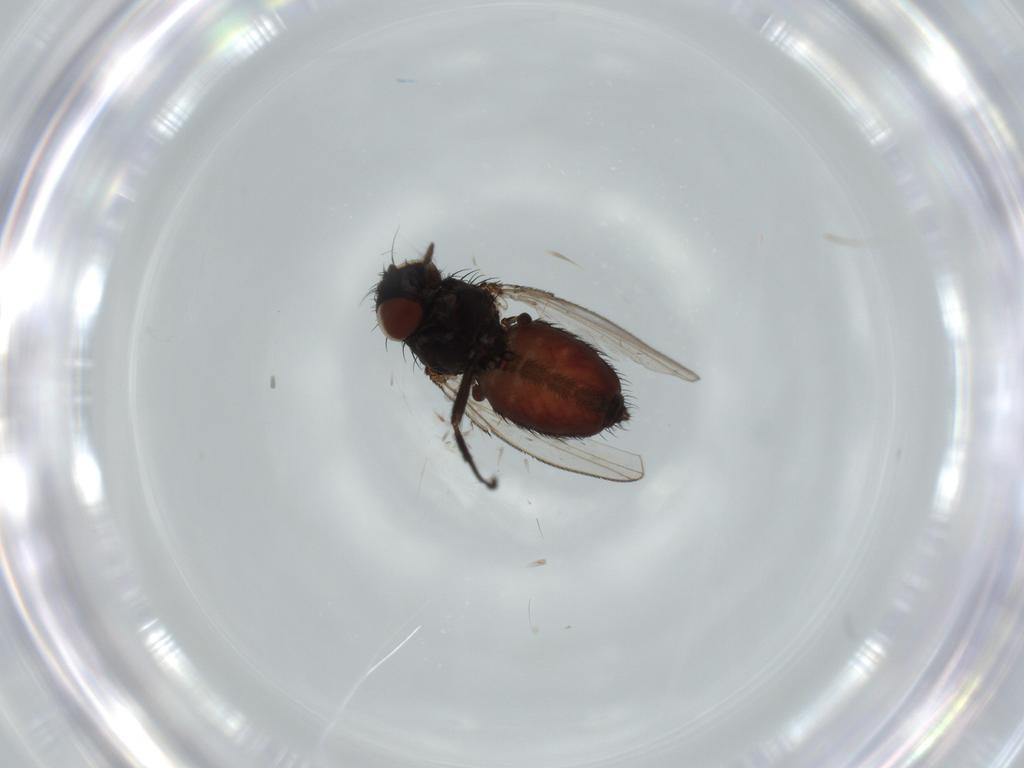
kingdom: Animalia
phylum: Arthropoda
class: Insecta
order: Diptera
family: Milichiidae
